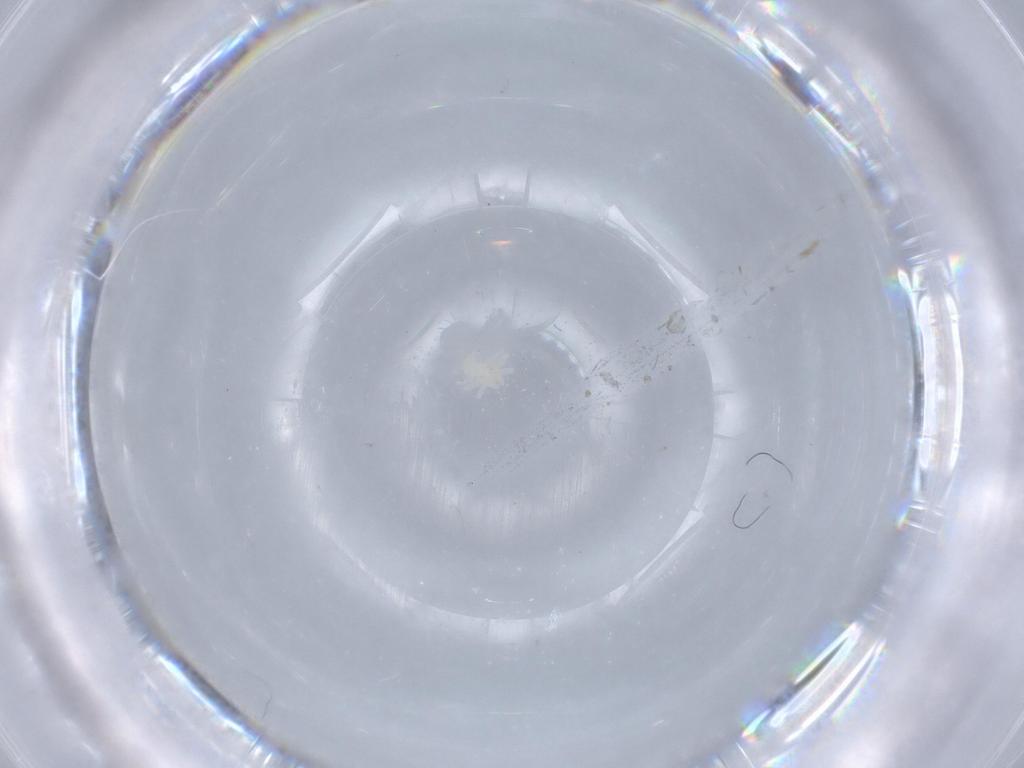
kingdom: Animalia
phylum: Arthropoda
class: Arachnida
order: Trombidiformes
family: Anystidae
